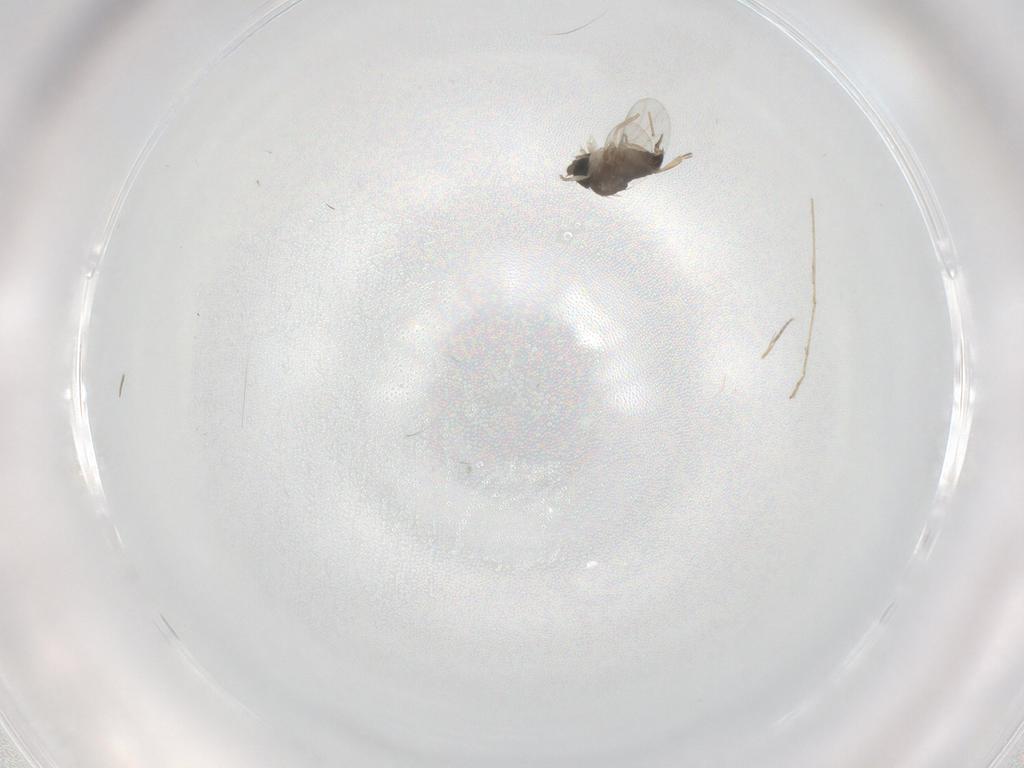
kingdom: Animalia
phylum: Arthropoda
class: Insecta
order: Diptera
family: Phoridae
